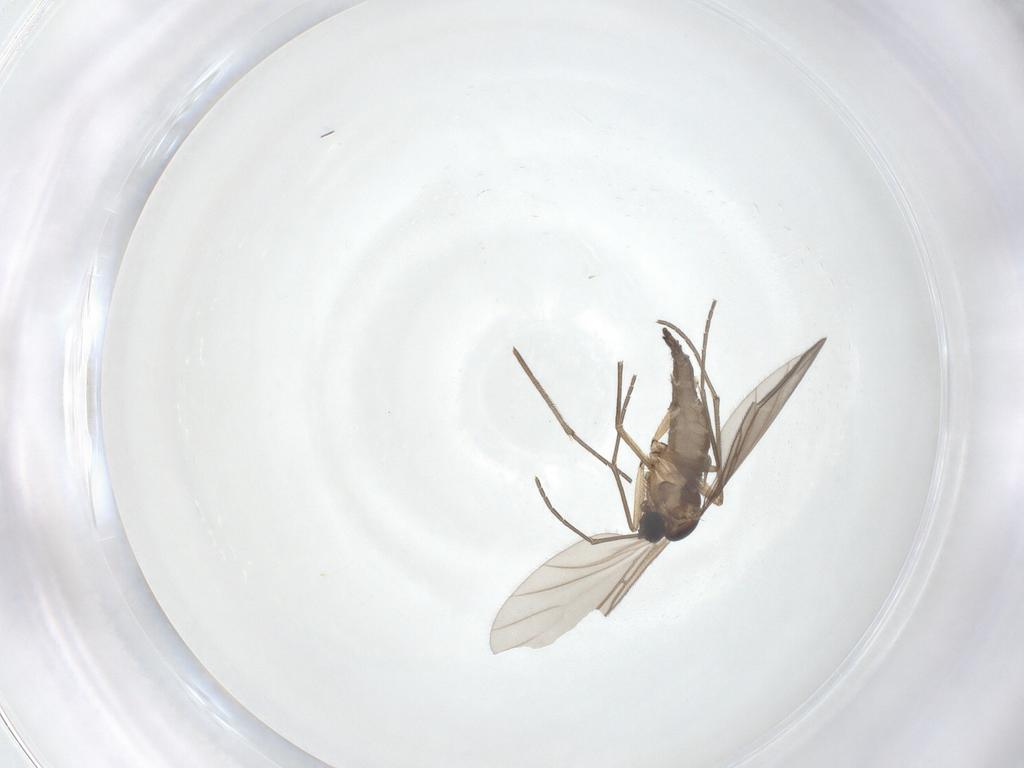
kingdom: Animalia
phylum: Arthropoda
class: Insecta
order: Diptera
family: Sciaridae
